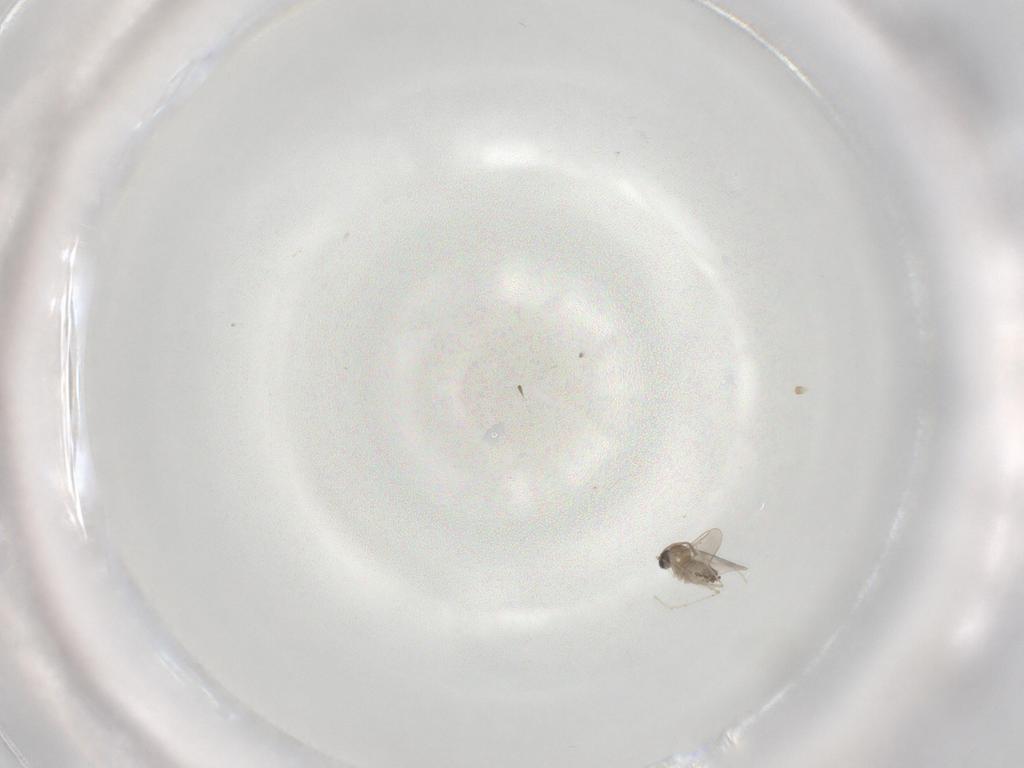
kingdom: Animalia
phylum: Arthropoda
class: Insecta
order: Diptera
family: Cecidomyiidae
